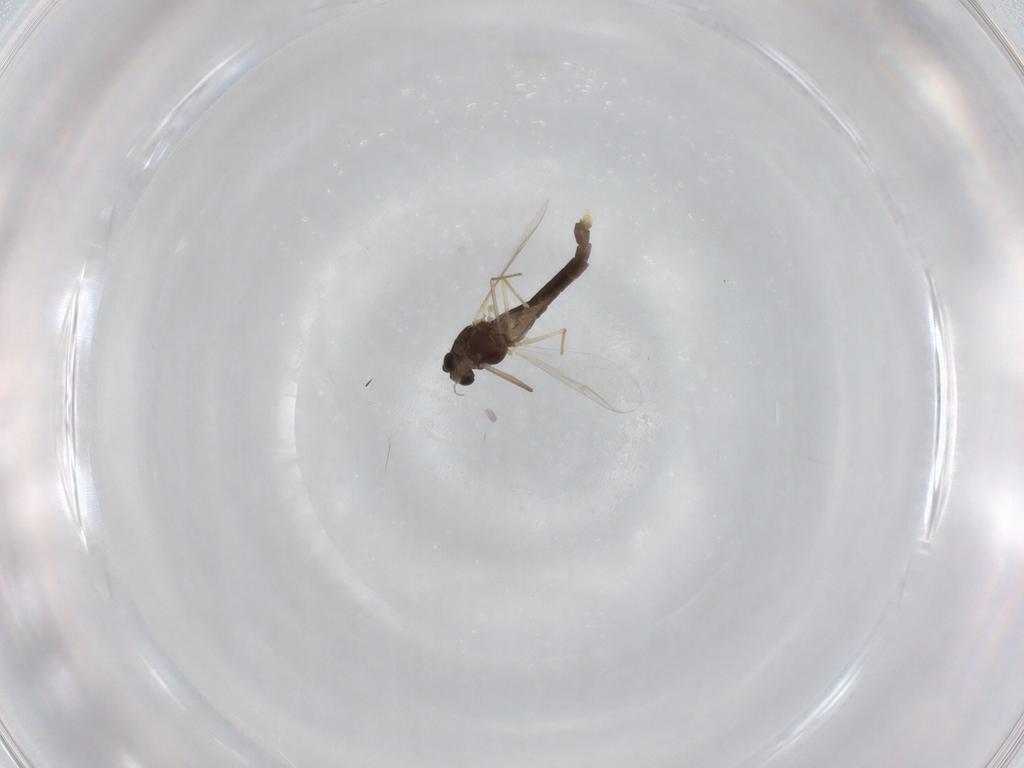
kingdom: Animalia
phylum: Arthropoda
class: Insecta
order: Diptera
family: Chironomidae
